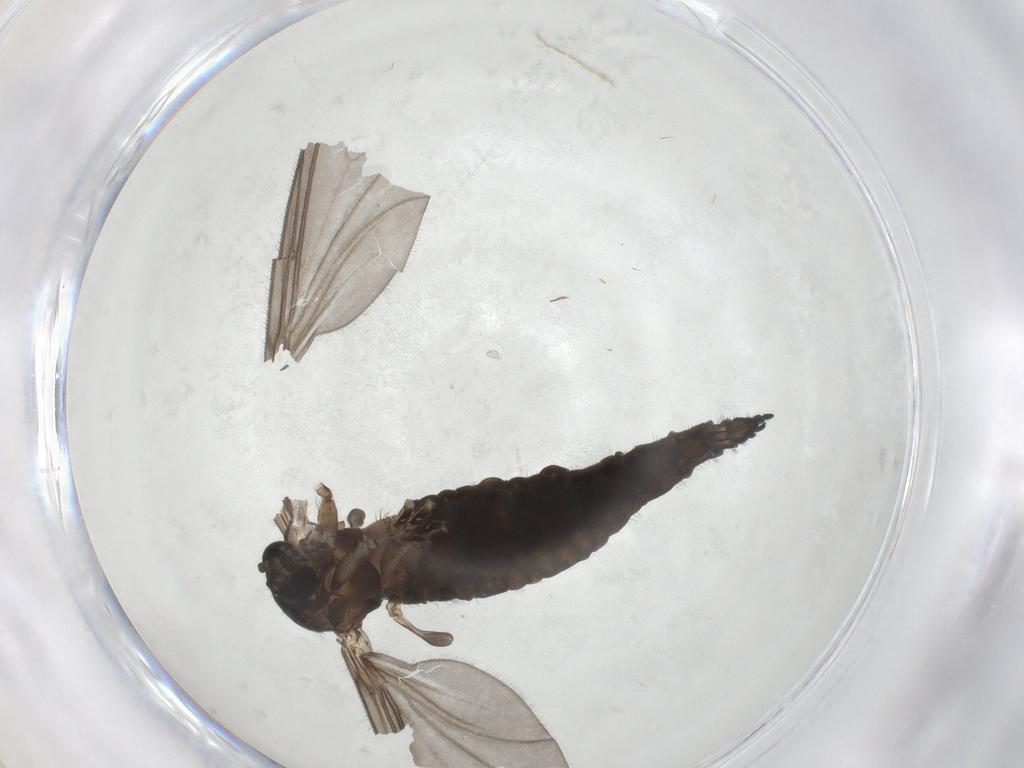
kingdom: Animalia
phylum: Arthropoda
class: Insecta
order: Diptera
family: Sciaridae
